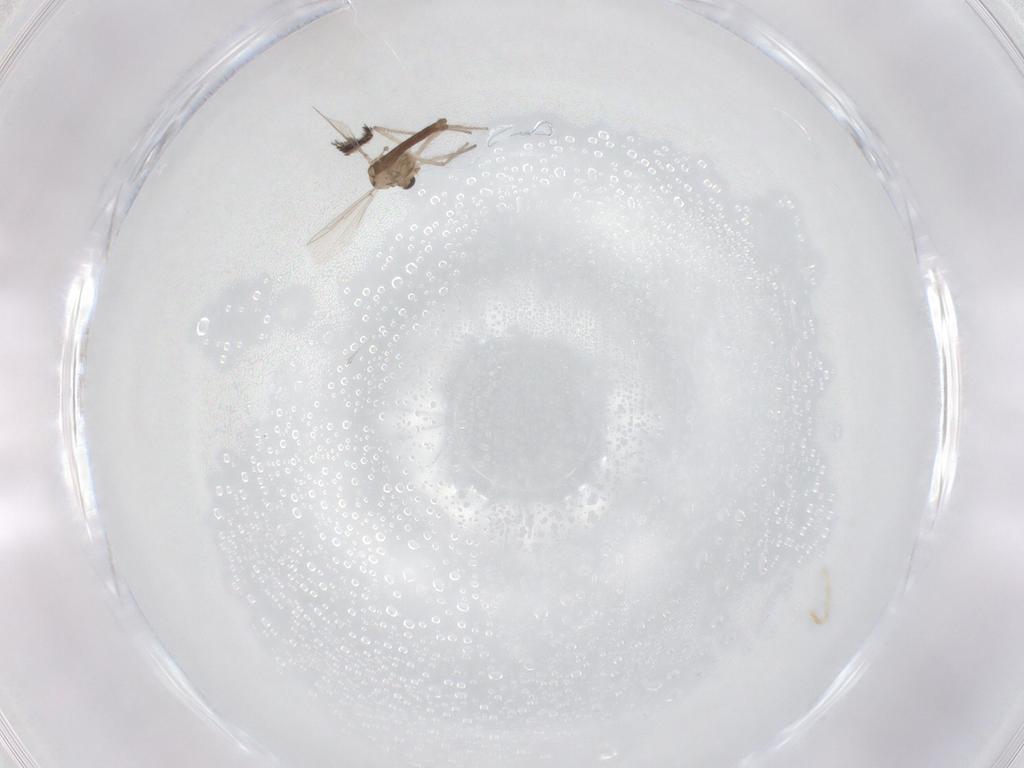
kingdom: Animalia
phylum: Arthropoda
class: Insecta
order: Diptera
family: Chironomidae
